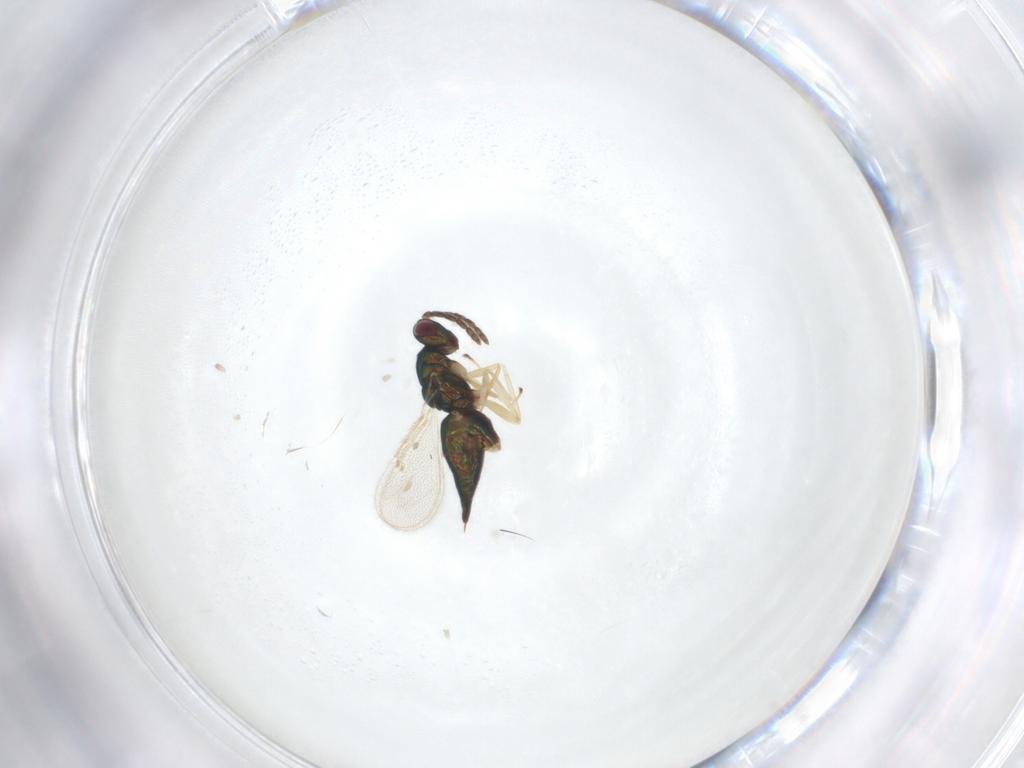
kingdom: Animalia
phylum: Arthropoda
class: Insecta
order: Hymenoptera
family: Eulophidae
